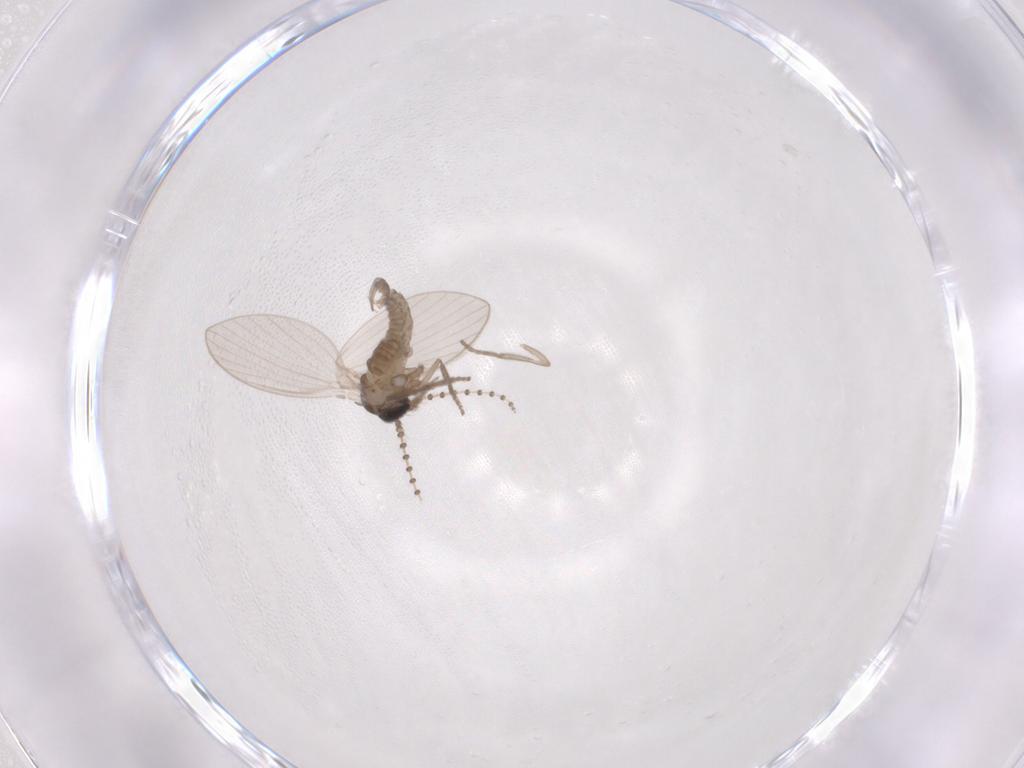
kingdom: Animalia
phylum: Arthropoda
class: Insecta
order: Diptera
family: Psychodidae
